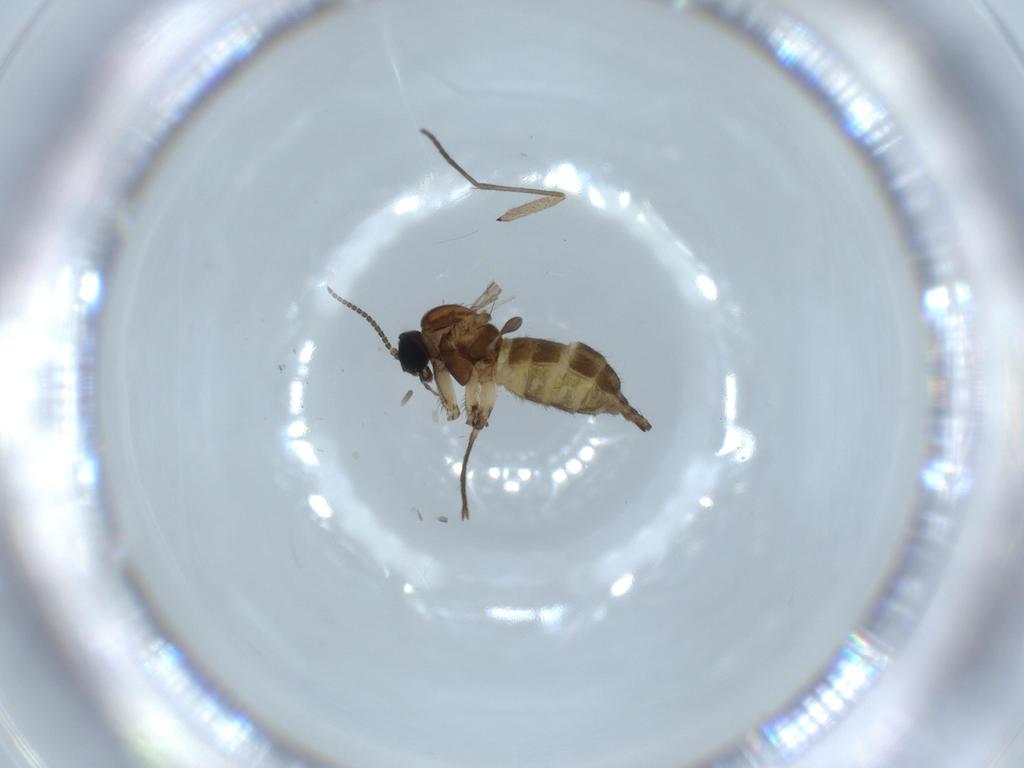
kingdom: Animalia
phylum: Arthropoda
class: Insecta
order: Diptera
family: Sciaridae
